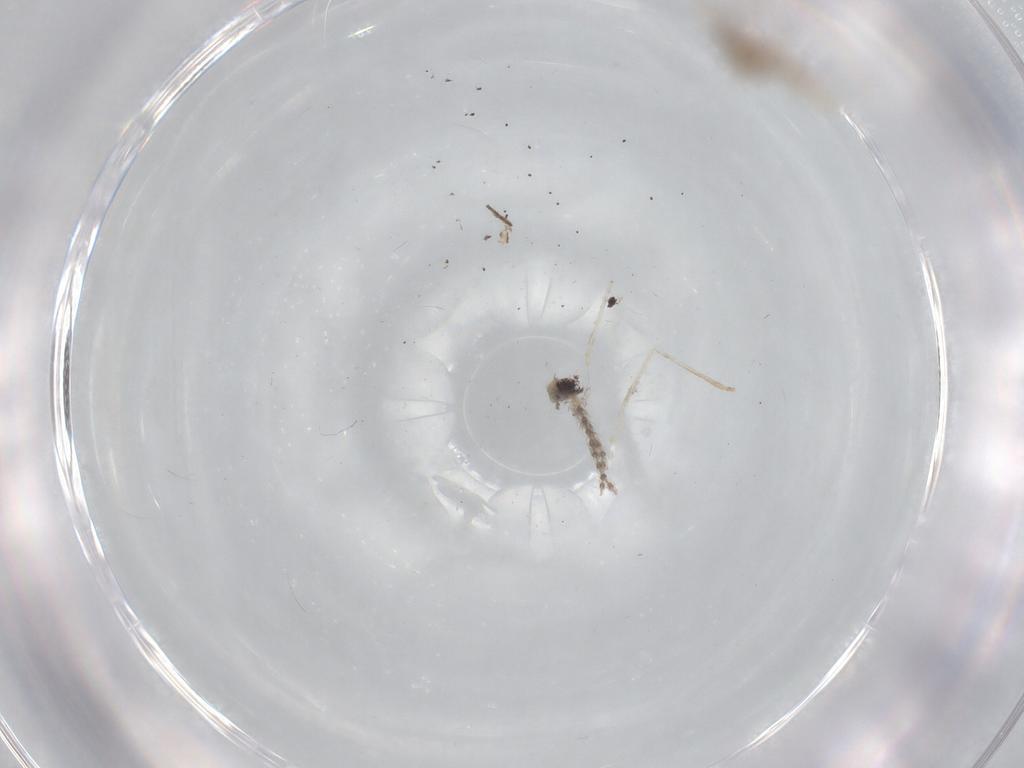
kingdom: Animalia
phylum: Arthropoda
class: Insecta
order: Diptera
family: Cecidomyiidae
